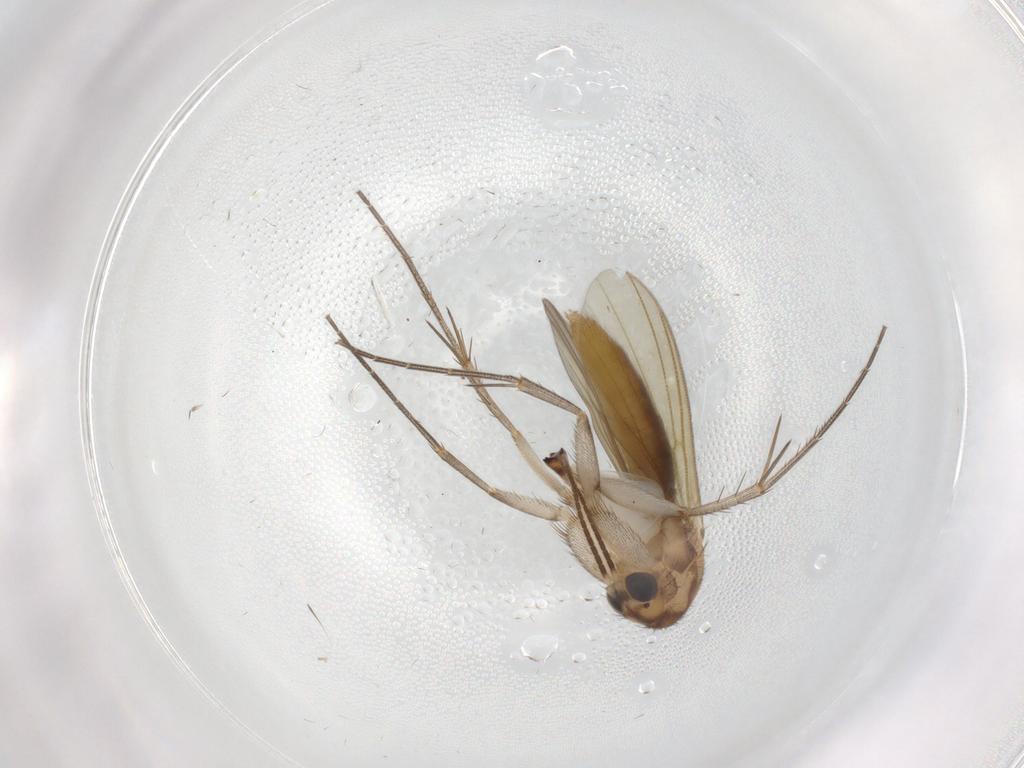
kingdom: Animalia
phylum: Arthropoda
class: Insecta
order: Diptera
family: Mycetophilidae
